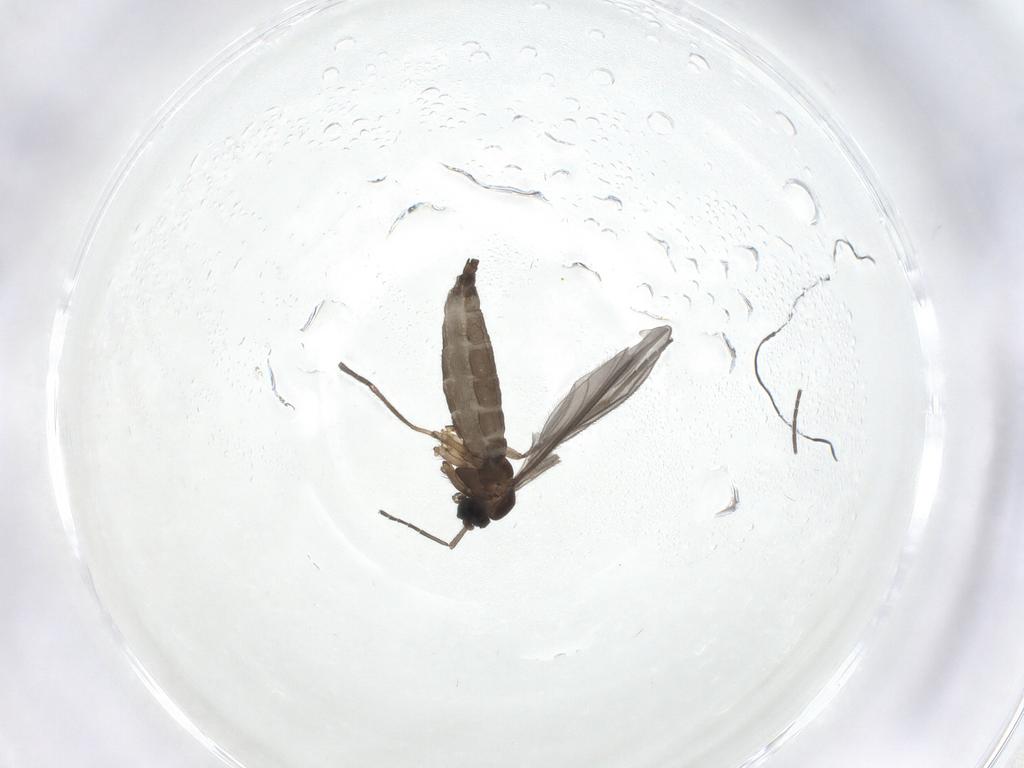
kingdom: Animalia
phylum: Arthropoda
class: Insecta
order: Diptera
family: Sciaridae
